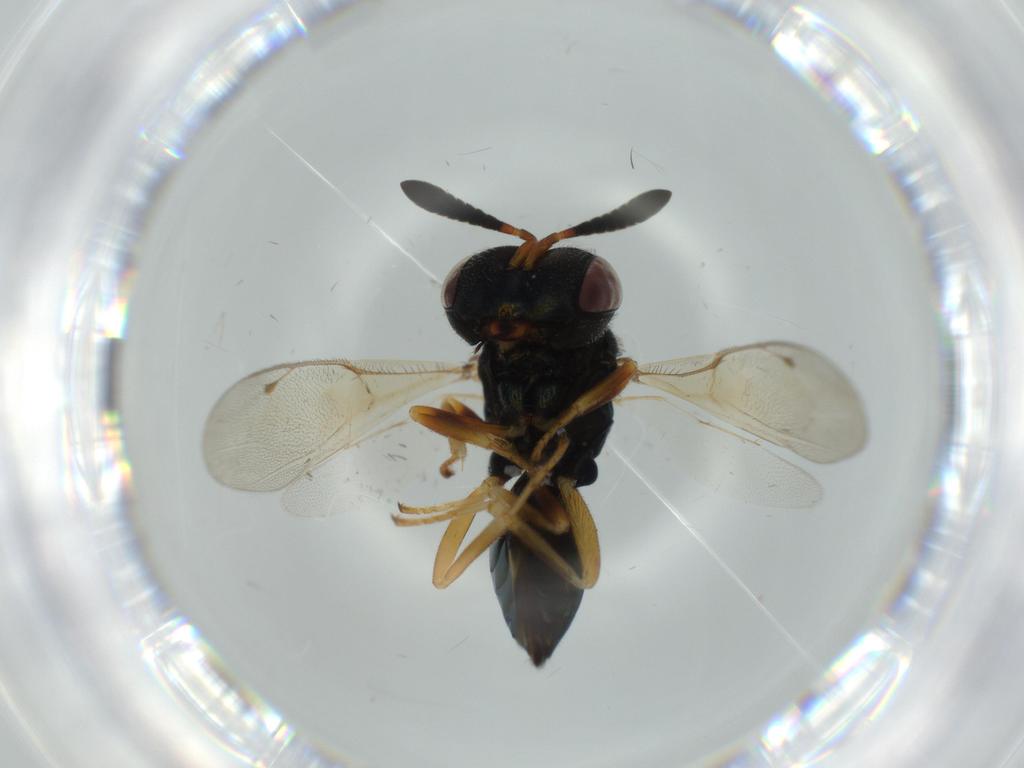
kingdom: Animalia
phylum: Arthropoda
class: Insecta
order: Hymenoptera
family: Pteromalidae
